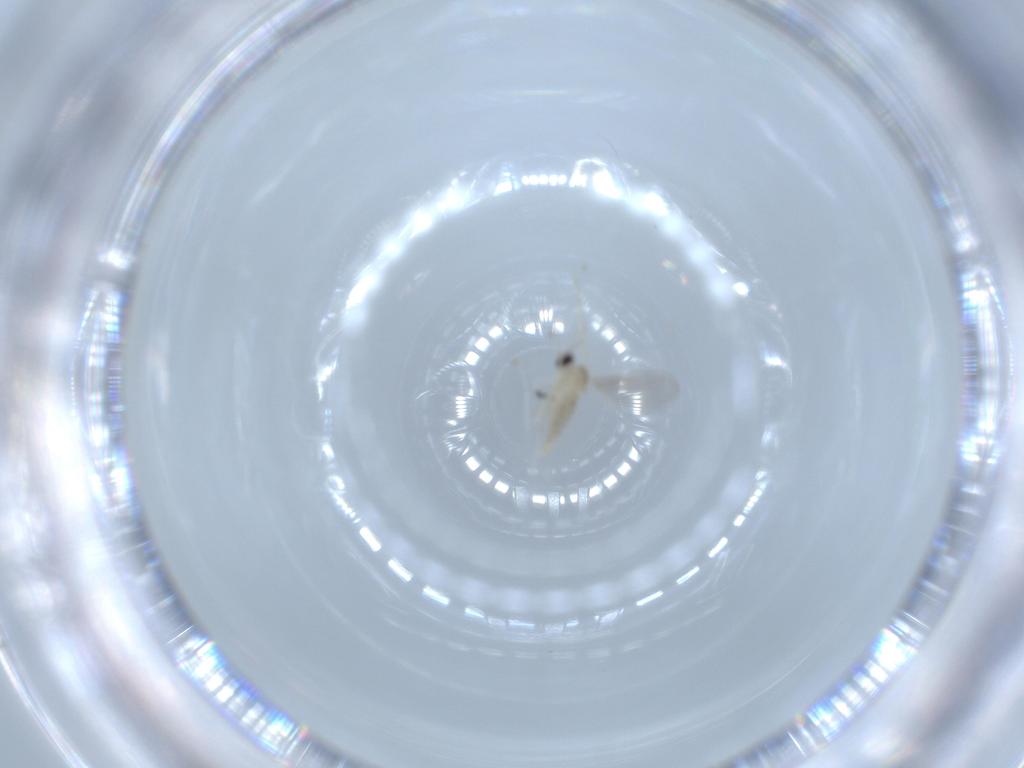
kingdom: Animalia
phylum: Arthropoda
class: Insecta
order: Diptera
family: Cecidomyiidae
